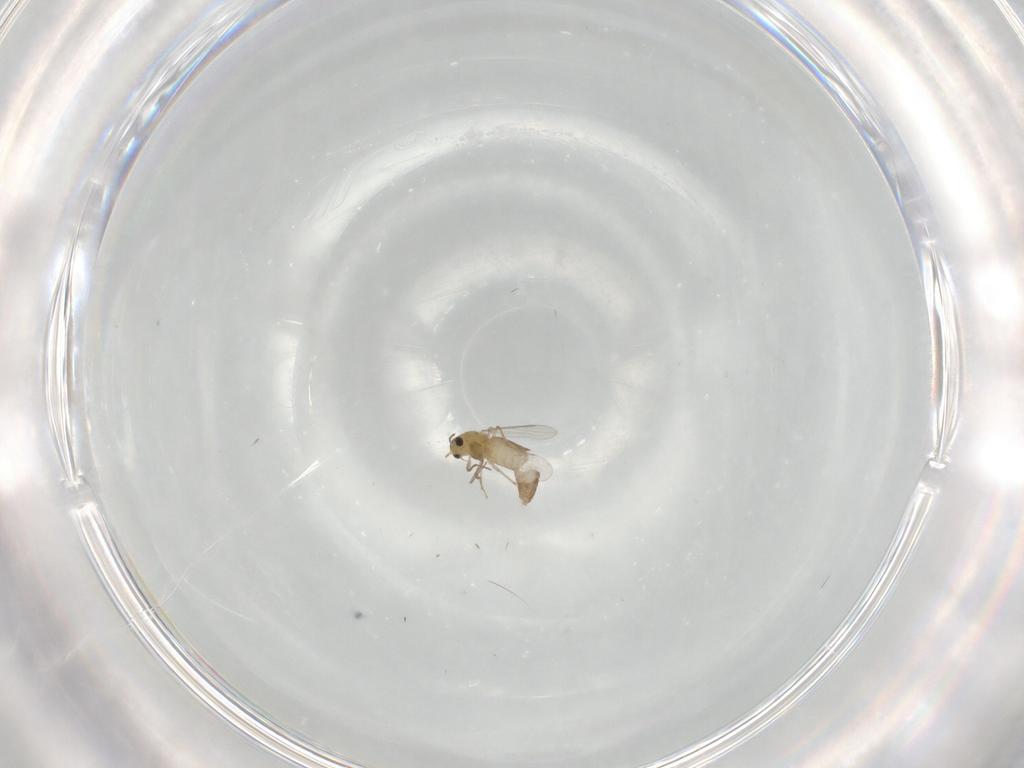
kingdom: Animalia
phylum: Arthropoda
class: Insecta
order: Diptera
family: Chironomidae
